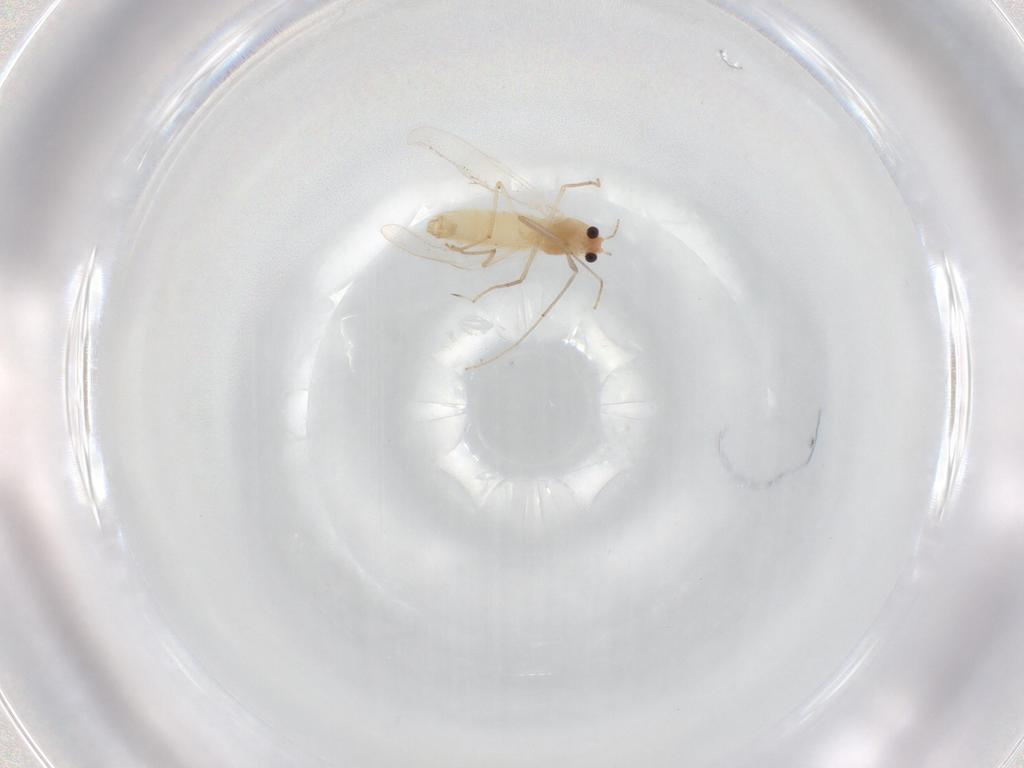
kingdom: Animalia
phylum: Arthropoda
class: Insecta
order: Diptera
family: Chironomidae
